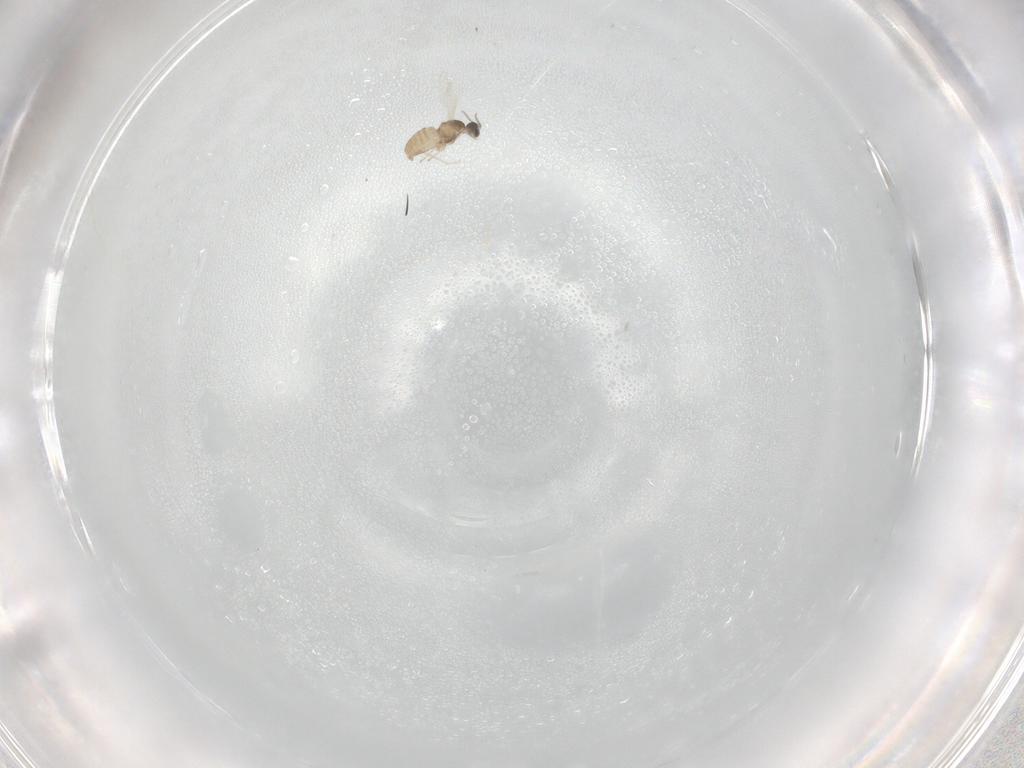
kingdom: Animalia
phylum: Arthropoda
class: Insecta
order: Diptera
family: Cecidomyiidae
